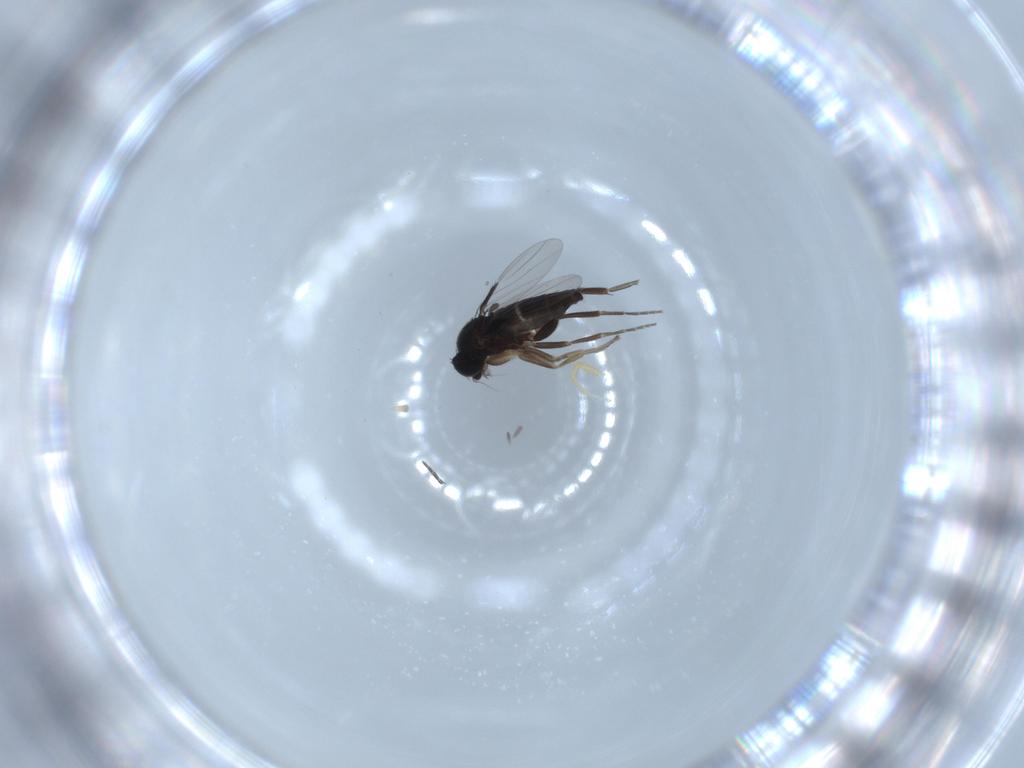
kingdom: Animalia
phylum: Arthropoda
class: Insecta
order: Diptera
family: Phoridae
